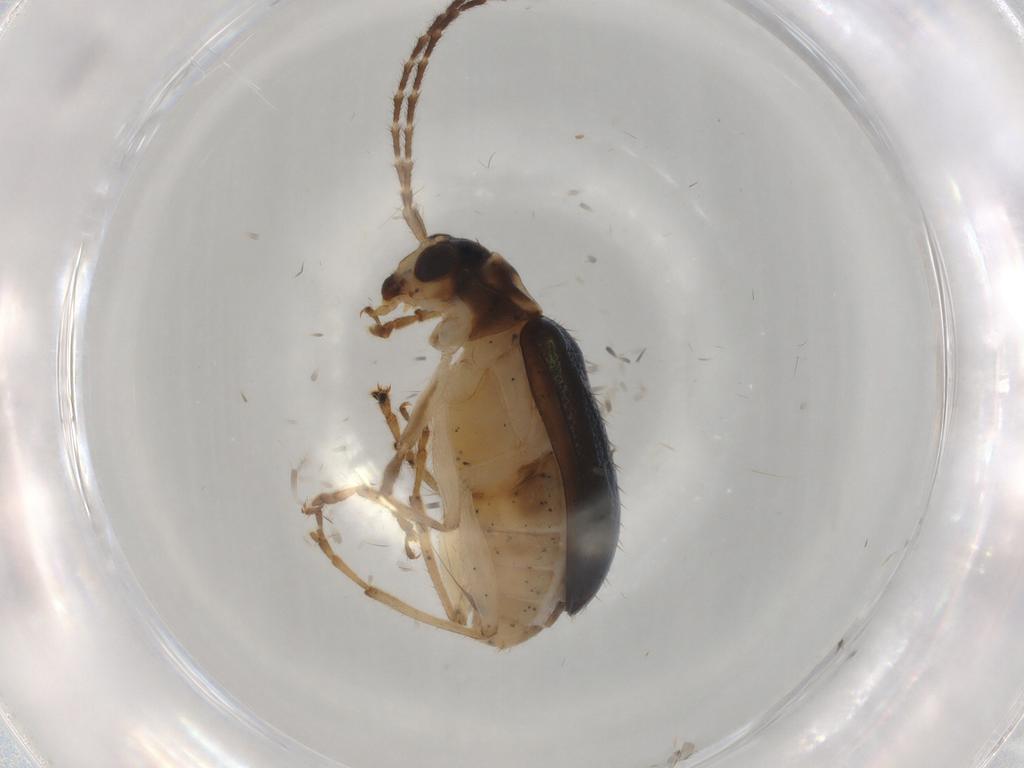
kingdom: Animalia
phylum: Arthropoda
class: Insecta
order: Coleoptera
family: Chrysomelidae
